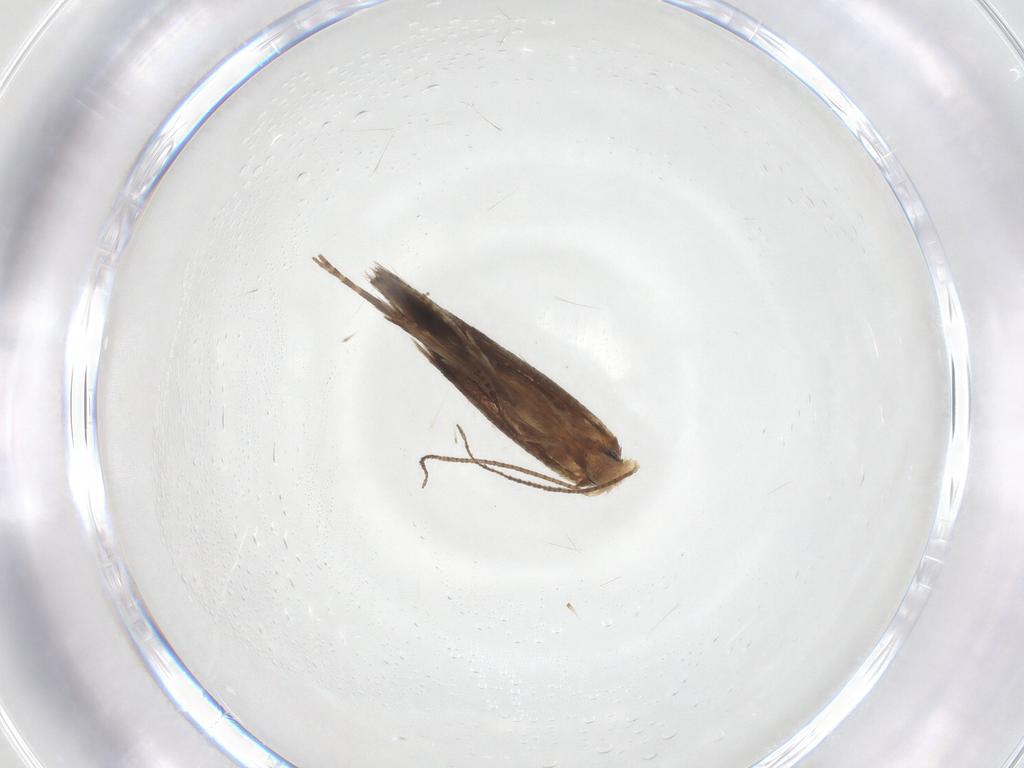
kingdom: Animalia
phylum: Arthropoda
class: Insecta
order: Lepidoptera
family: Gracillariidae
